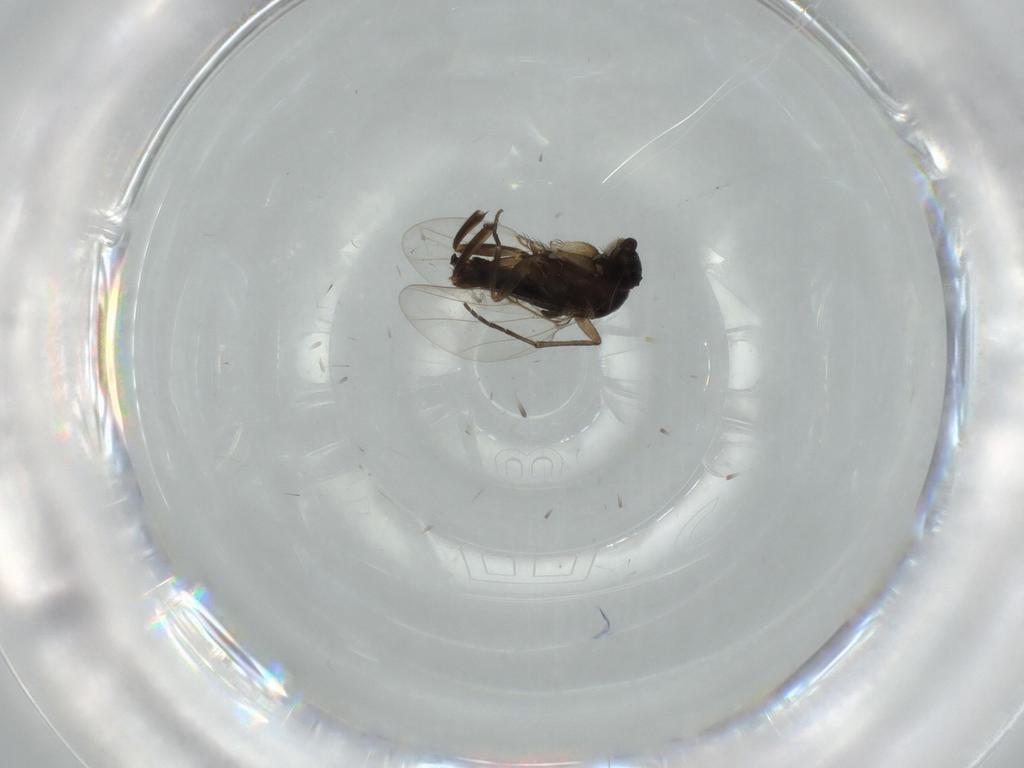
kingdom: Animalia
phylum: Arthropoda
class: Insecta
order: Diptera
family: Phoridae
